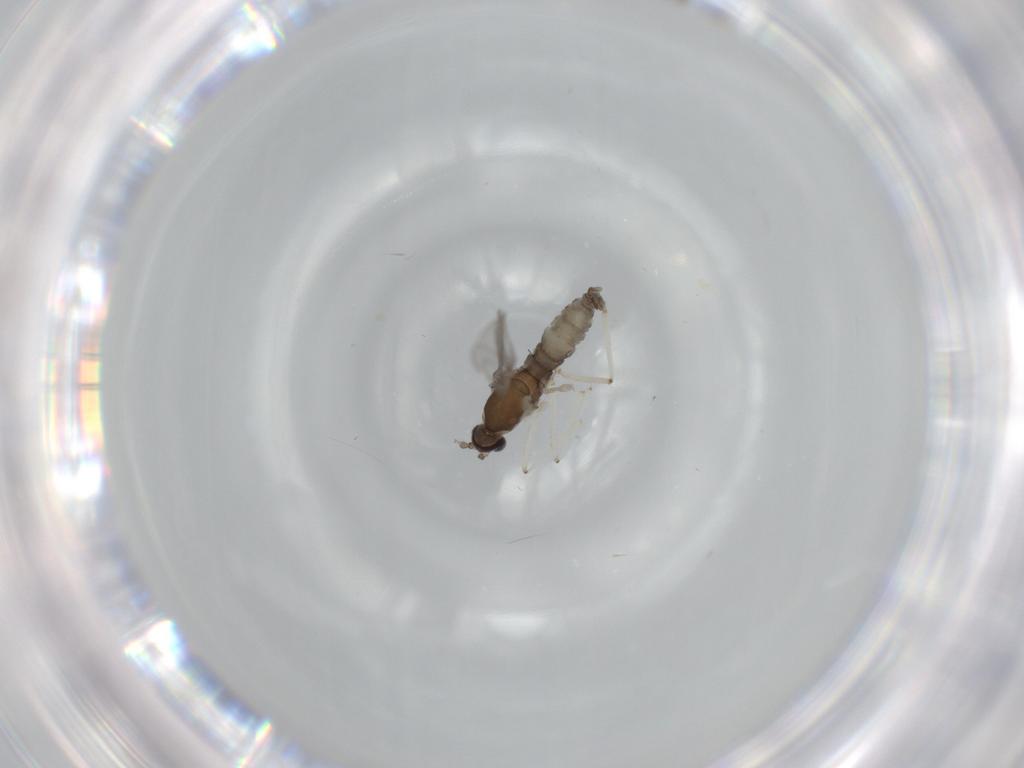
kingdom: Animalia
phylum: Arthropoda
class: Insecta
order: Diptera
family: Cecidomyiidae
